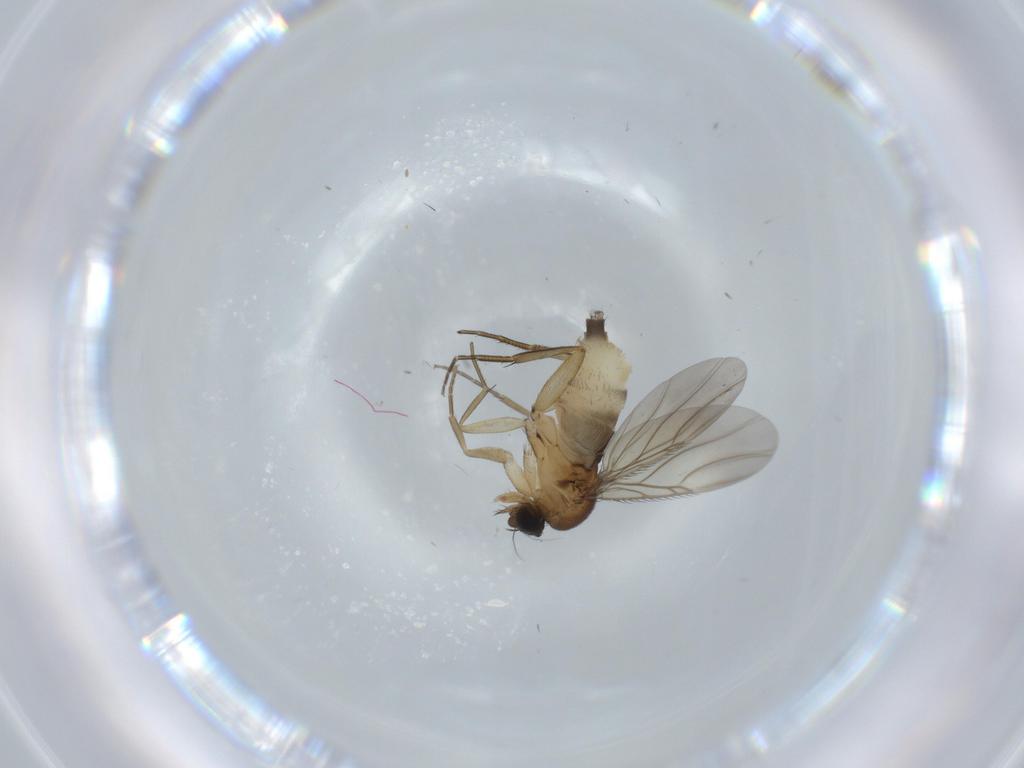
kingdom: Animalia
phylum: Arthropoda
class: Insecta
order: Diptera
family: Phoridae
